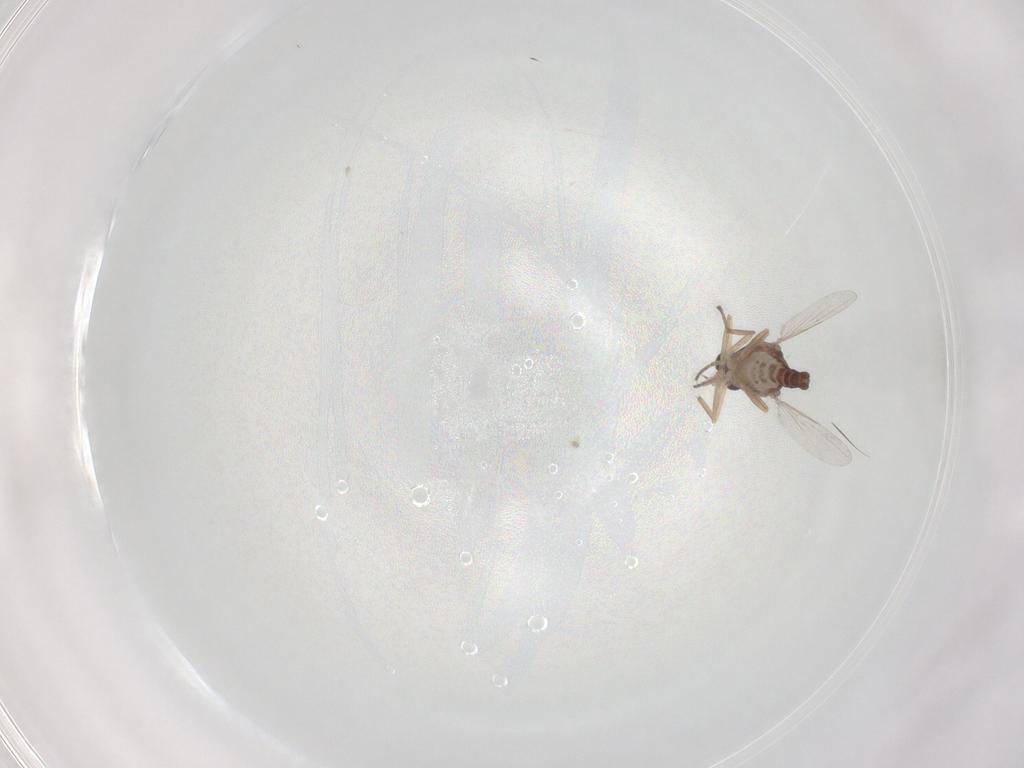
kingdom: Animalia
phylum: Arthropoda
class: Insecta
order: Diptera
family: Ceratopogonidae
